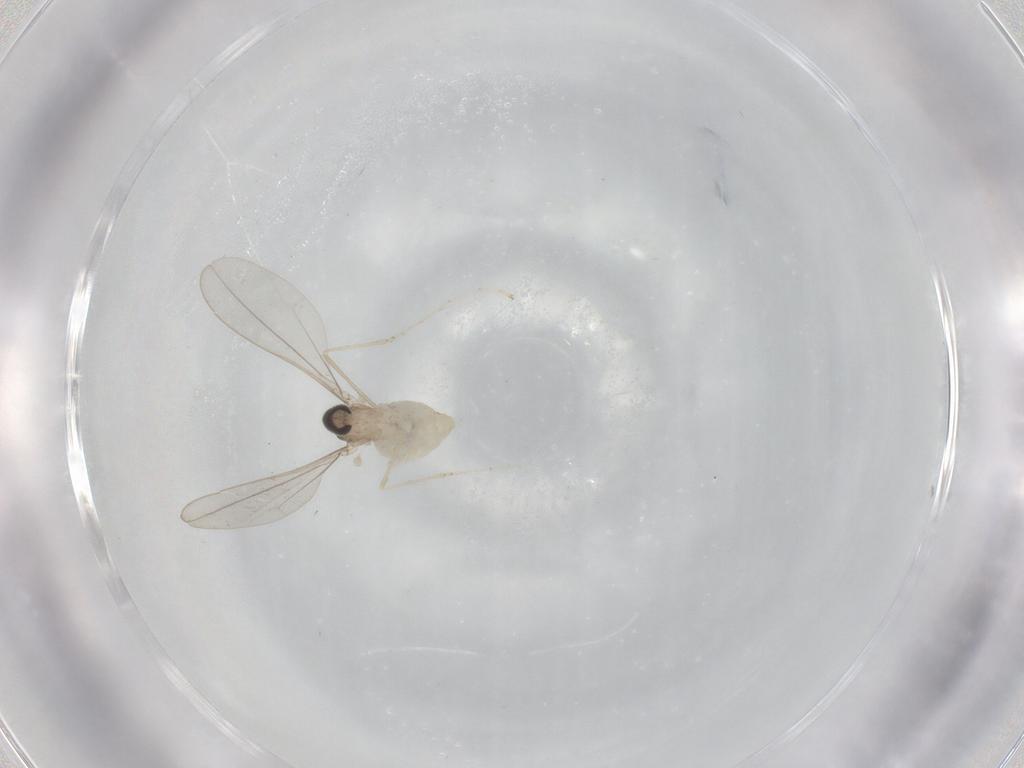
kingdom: Animalia
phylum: Arthropoda
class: Insecta
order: Diptera
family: Cecidomyiidae
